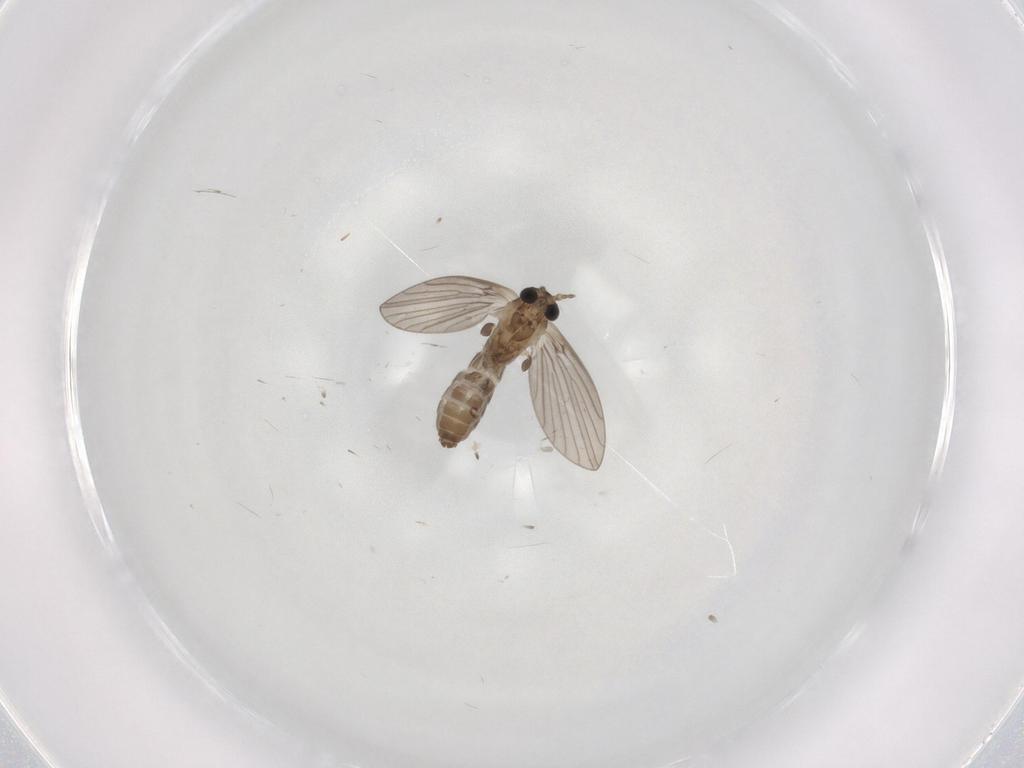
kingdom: Animalia
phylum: Arthropoda
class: Insecta
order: Diptera
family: Psychodidae
